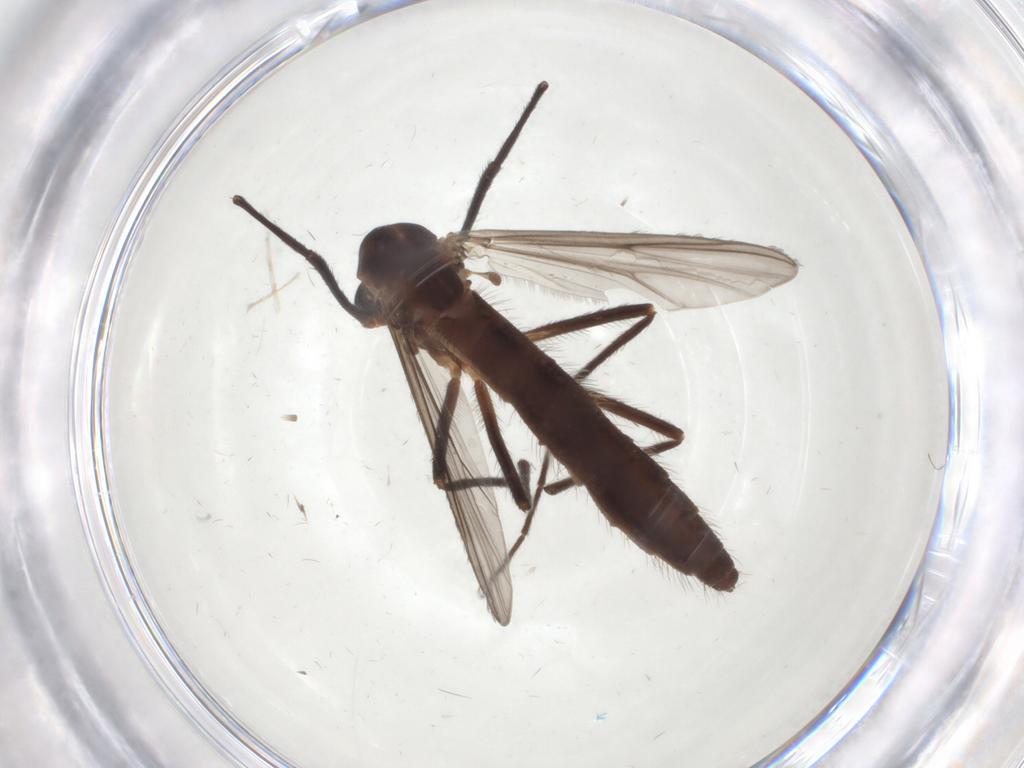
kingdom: Animalia
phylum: Arthropoda
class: Insecta
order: Diptera
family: Chironomidae
